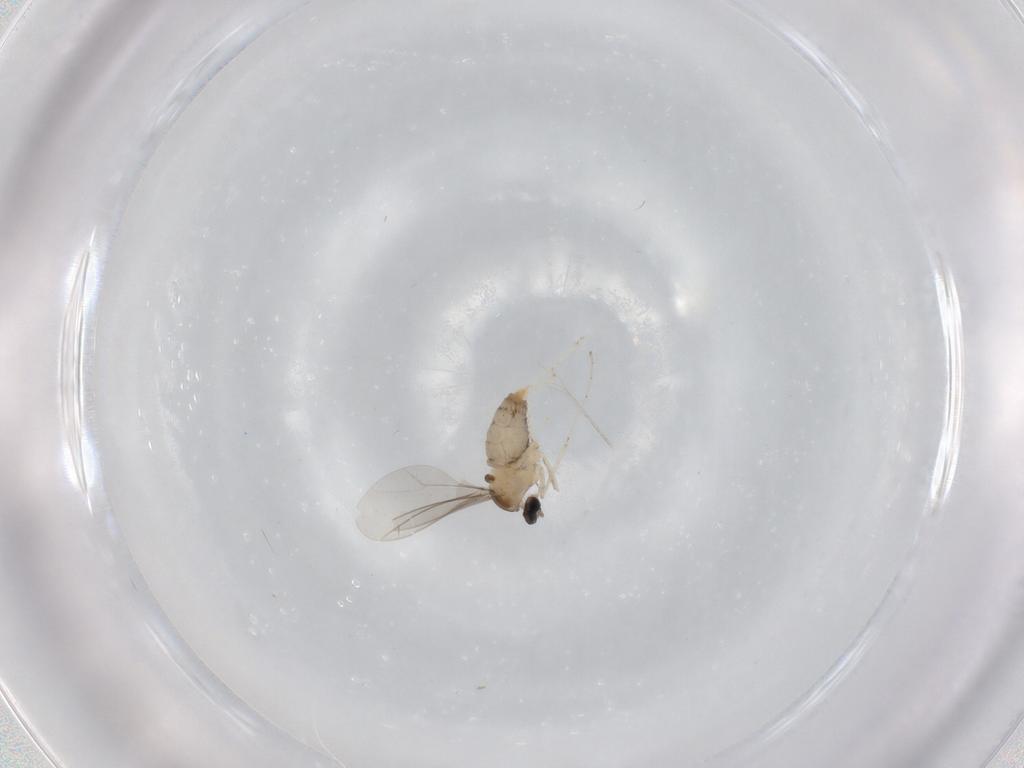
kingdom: Animalia
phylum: Arthropoda
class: Insecta
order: Diptera
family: Cecidomyiidae
